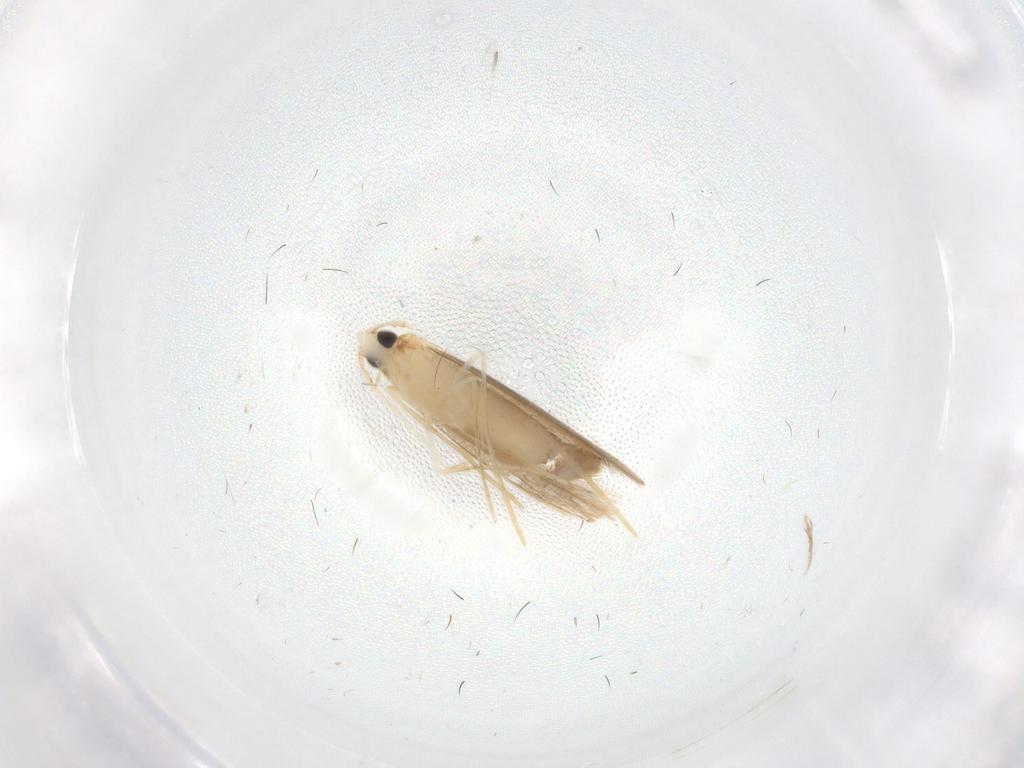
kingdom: Animalia
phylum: Arthropoda
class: Insecta
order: Lepidoptera
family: Tineidae
